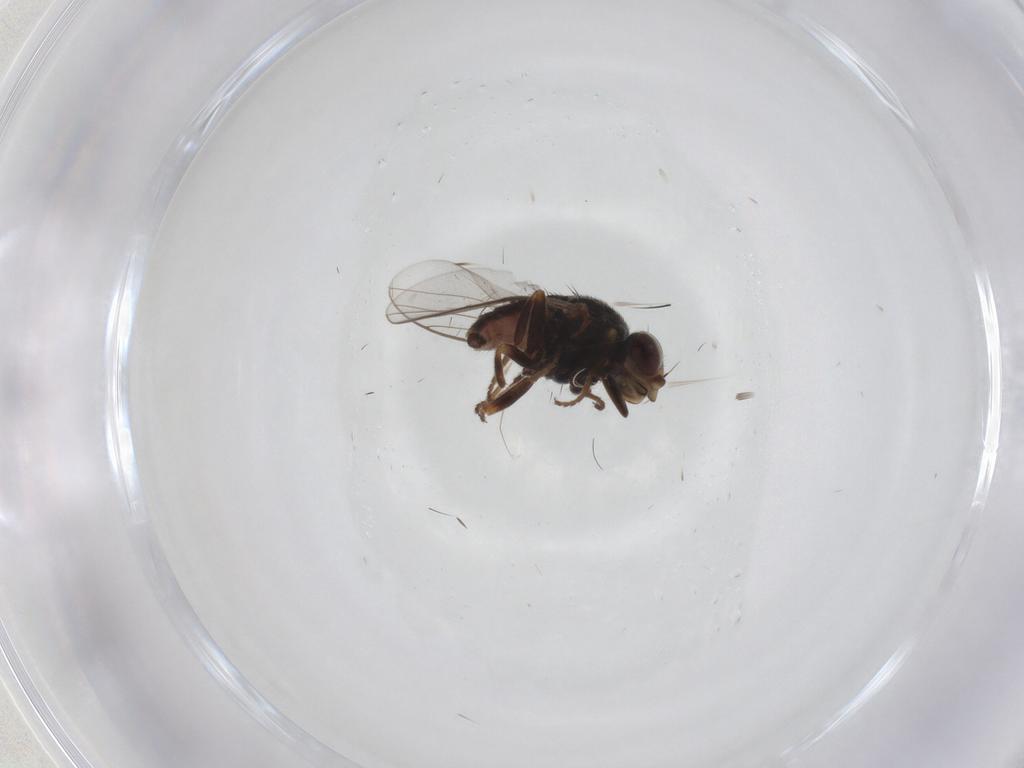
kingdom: Animalia
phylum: Arthropoda
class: Insecta
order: Diptera
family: Chloropidae
